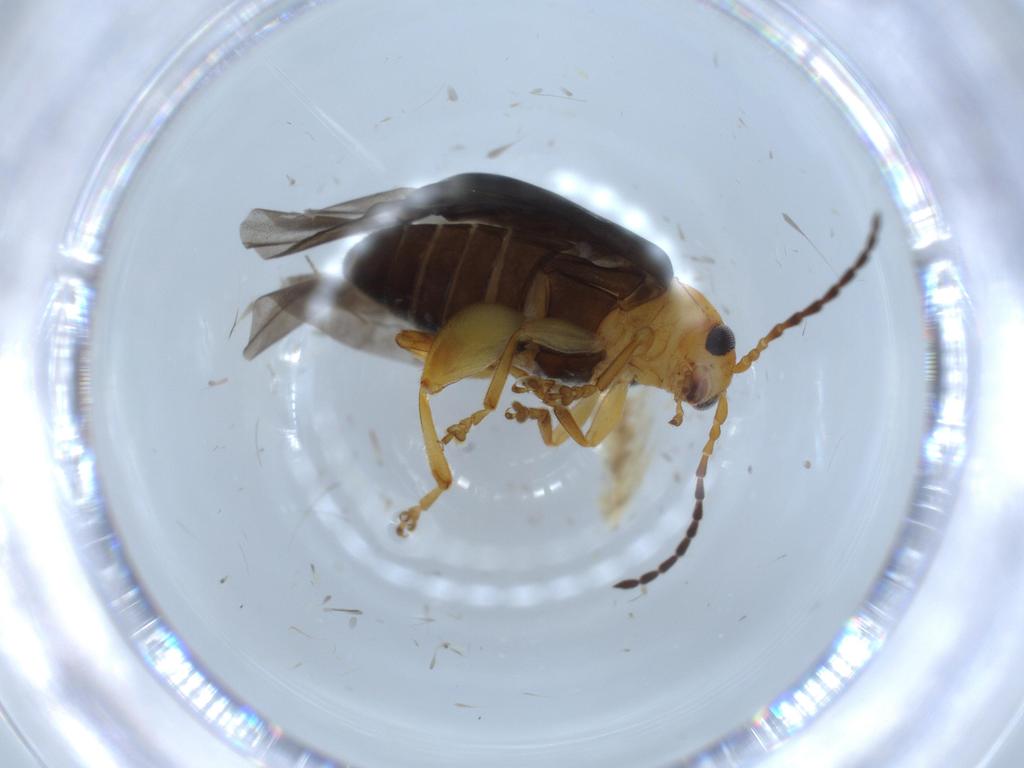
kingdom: Animalia
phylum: Arthropoda
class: Insecta
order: Coleoptera
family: Chrysomelidae
